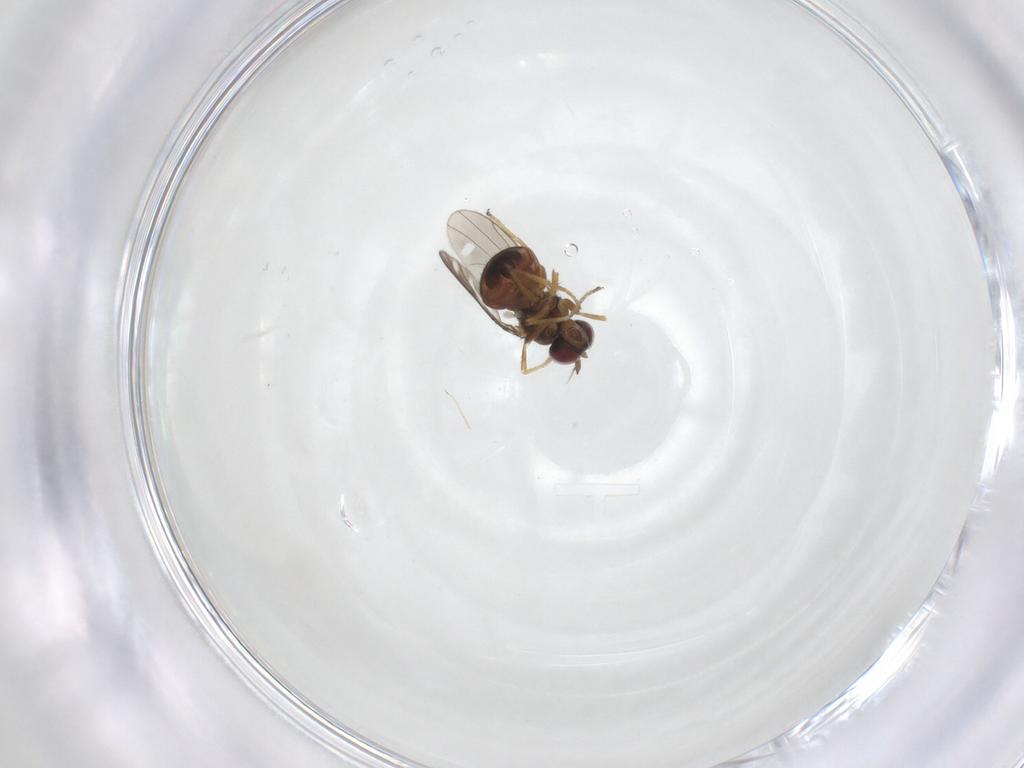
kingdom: Animalia
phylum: Arthropoda
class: Insecta
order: Diptera
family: Ephydridae
